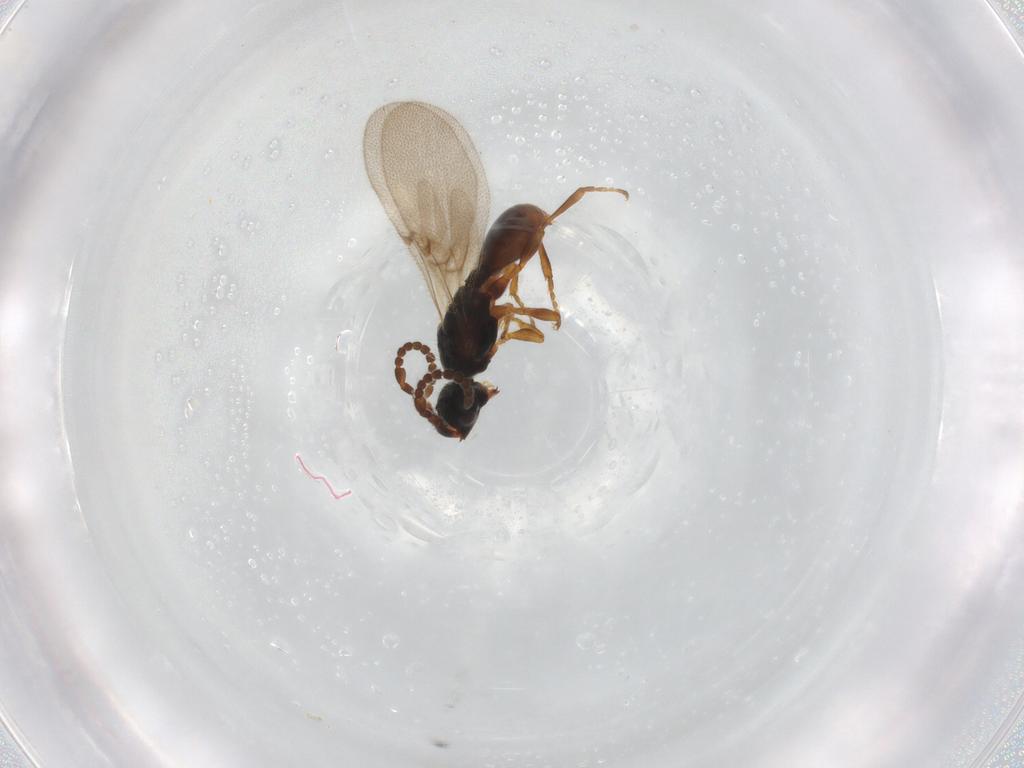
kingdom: Animalia
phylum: Arthropoda
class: Insecta
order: Hymenoptera
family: Diapriidae
